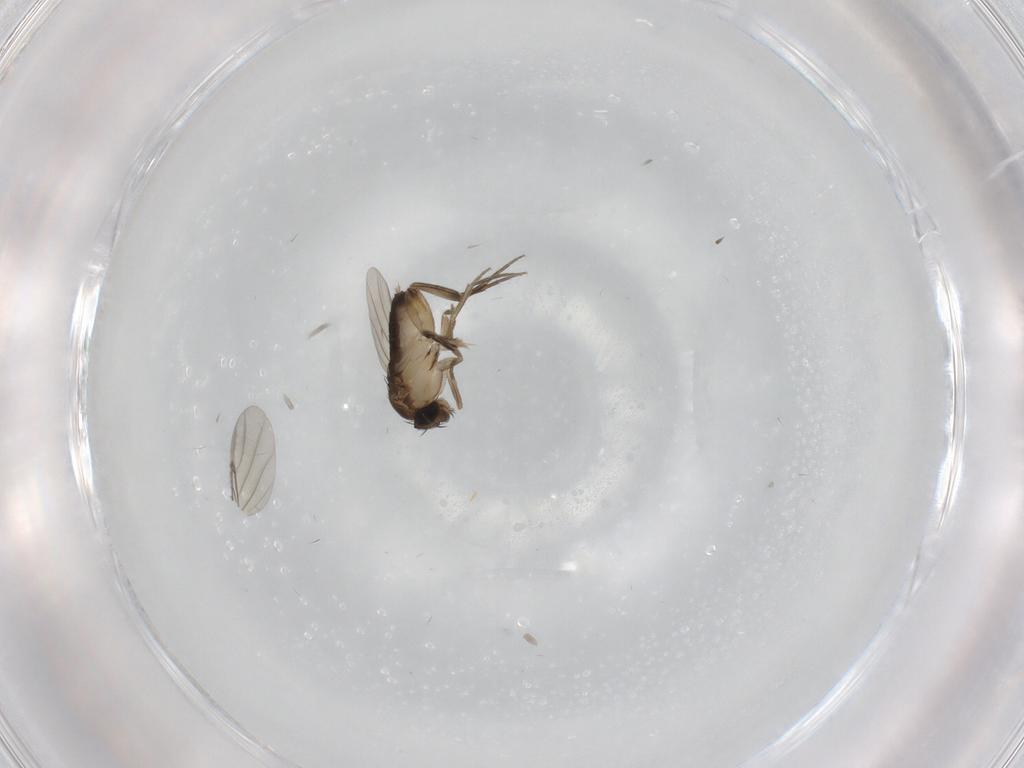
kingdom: Animalia
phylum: Arthropoda
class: Insecta
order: Diptera
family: Phoridae
